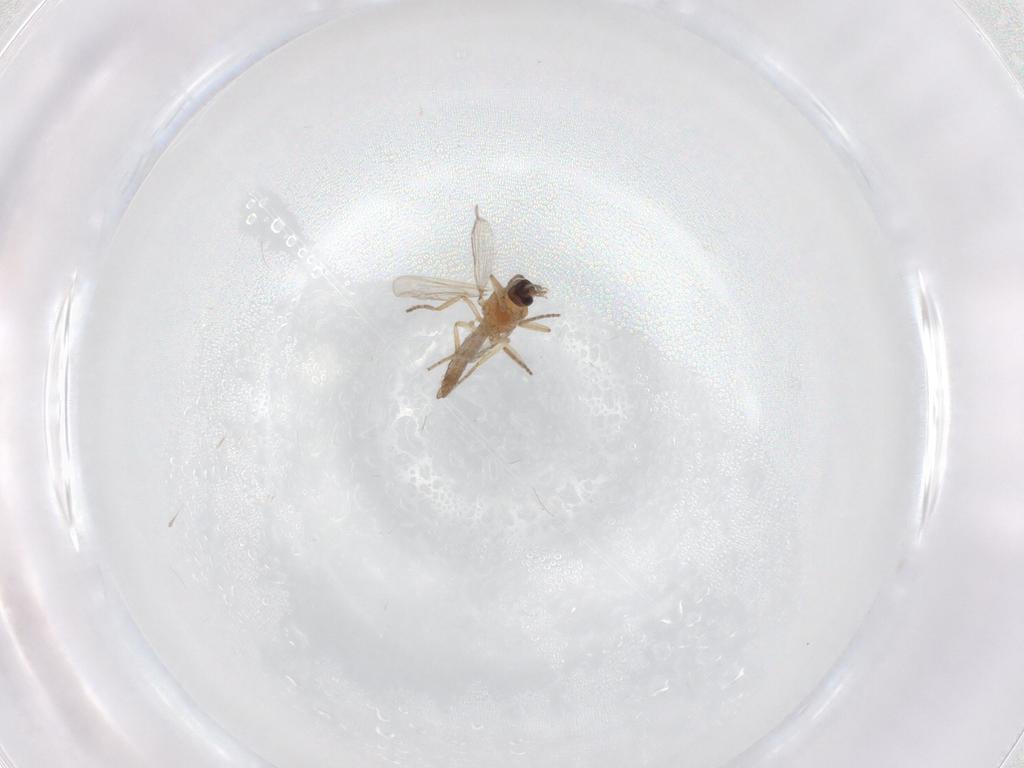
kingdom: Animalia
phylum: Arthropoda
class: Insecta
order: Diptera
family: Chironomidae
